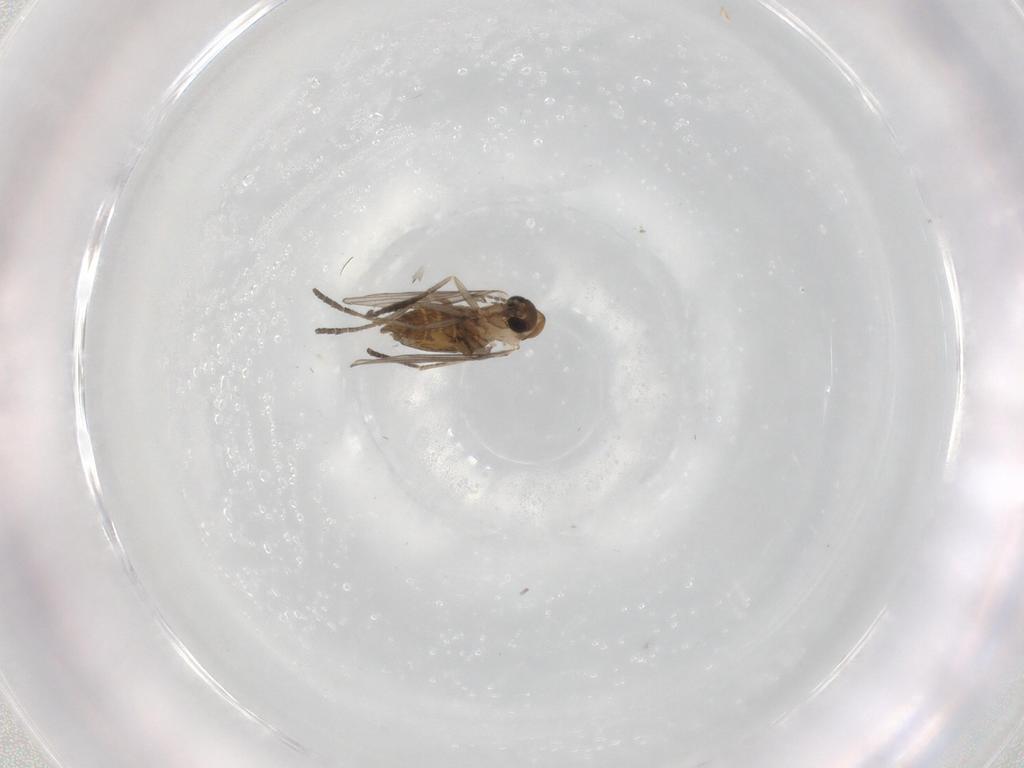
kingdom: Animalia
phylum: Arthropoda
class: Insecta
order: Diptera
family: Psychodidae
